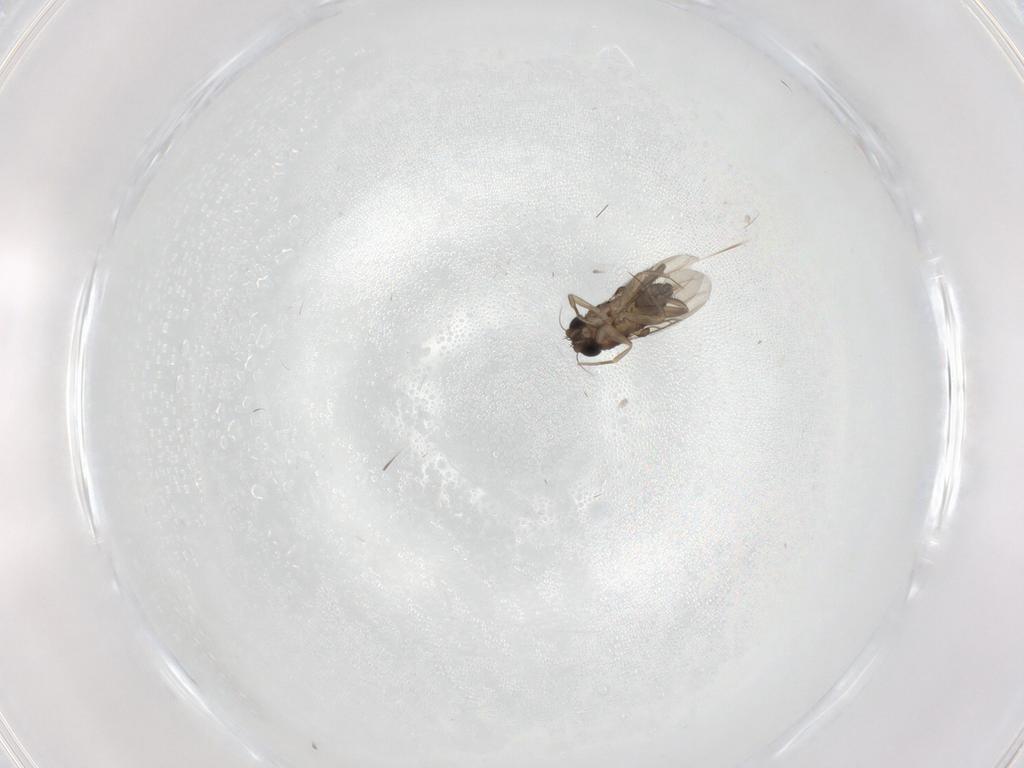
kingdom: Animalia
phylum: Arthropoda
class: Insecta
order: Diptera
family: Phoridae
